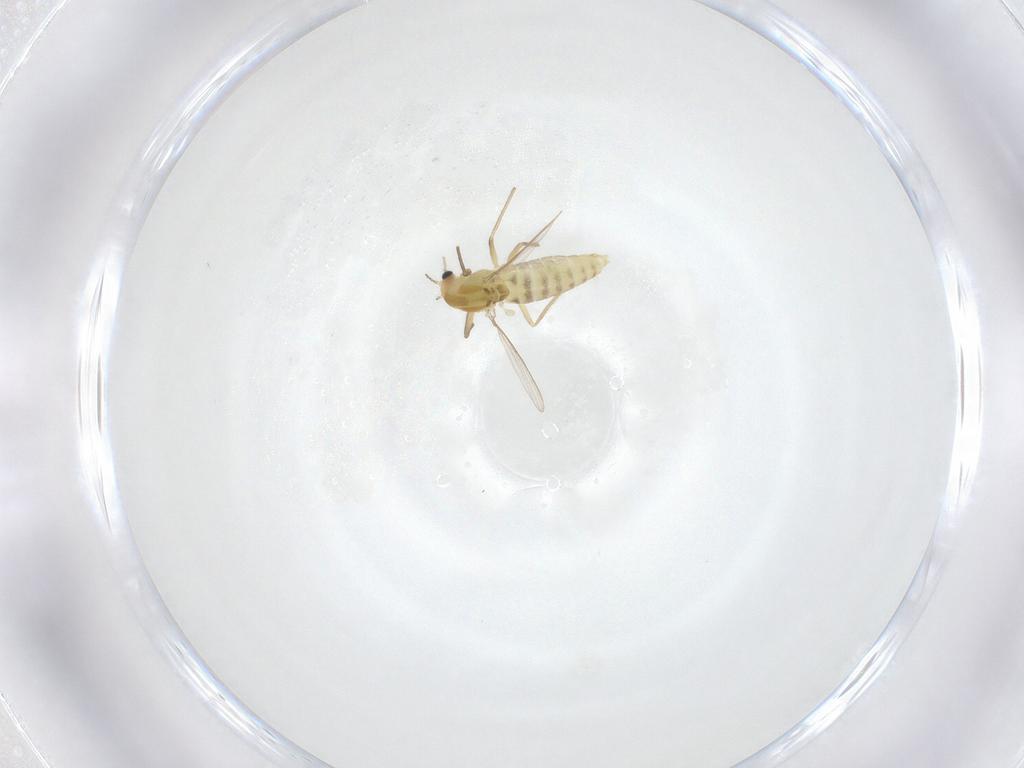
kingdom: Animalia
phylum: Arthropoda
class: Insecta
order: Diptera
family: Chironomidae
